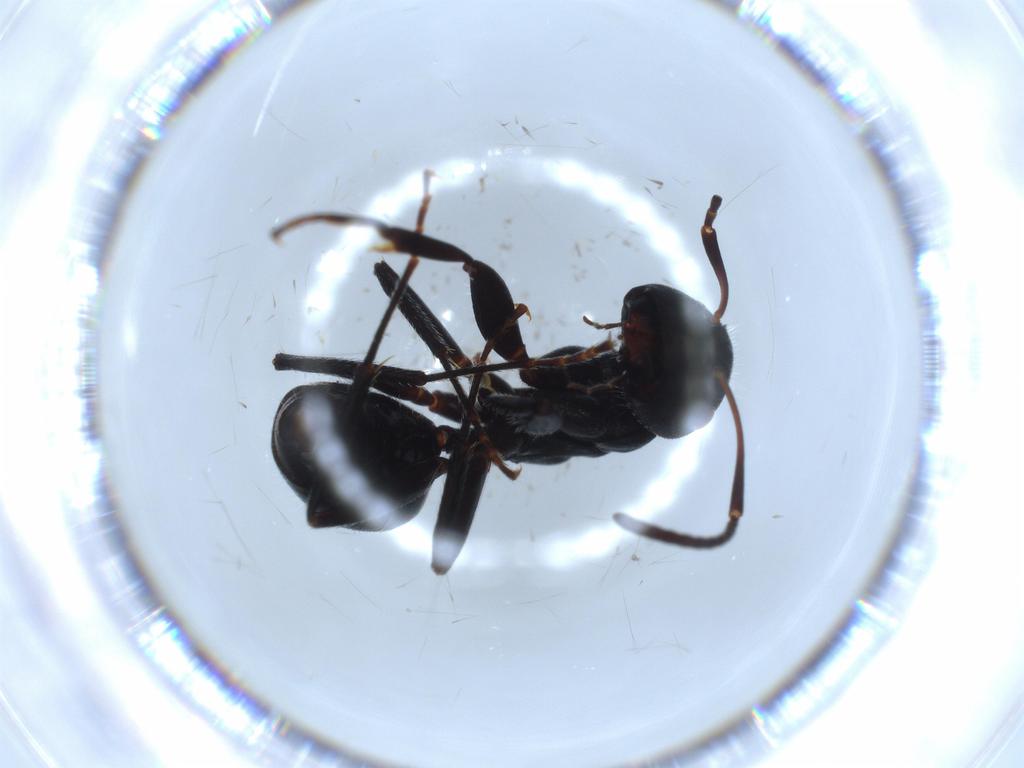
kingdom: Animalia
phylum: Arthropoda
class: Insecta
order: Hymenoptera
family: Formicidae
